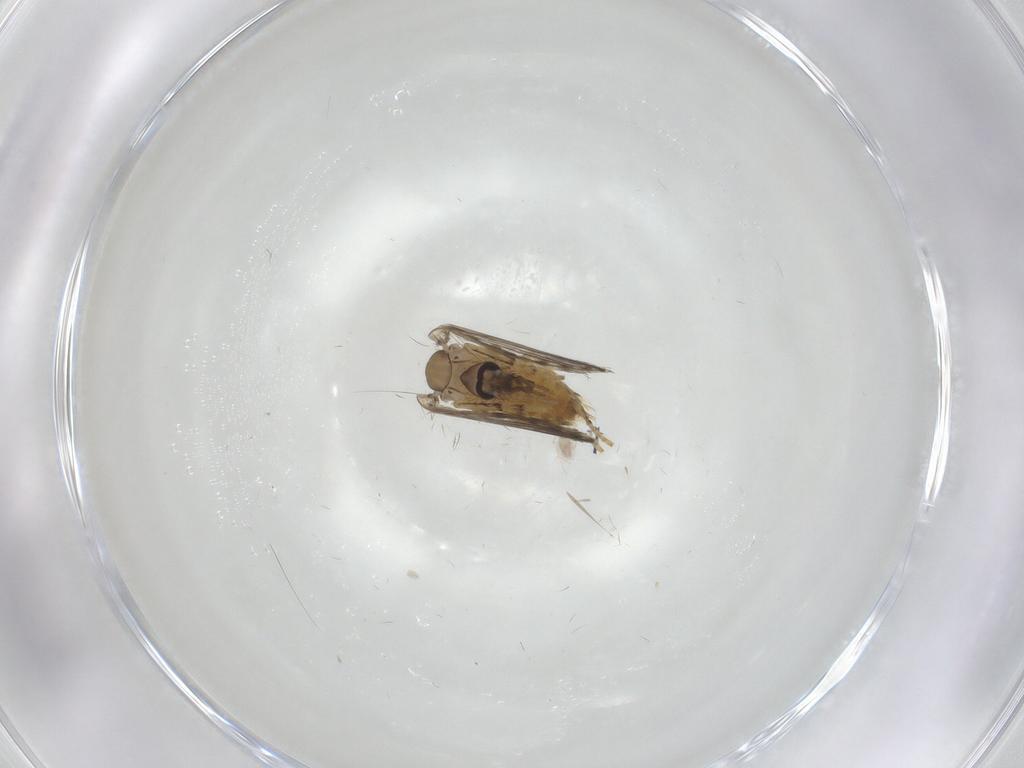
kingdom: Animalia
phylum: Arthropoda
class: Insecta
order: Diptera
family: Psychodidae
